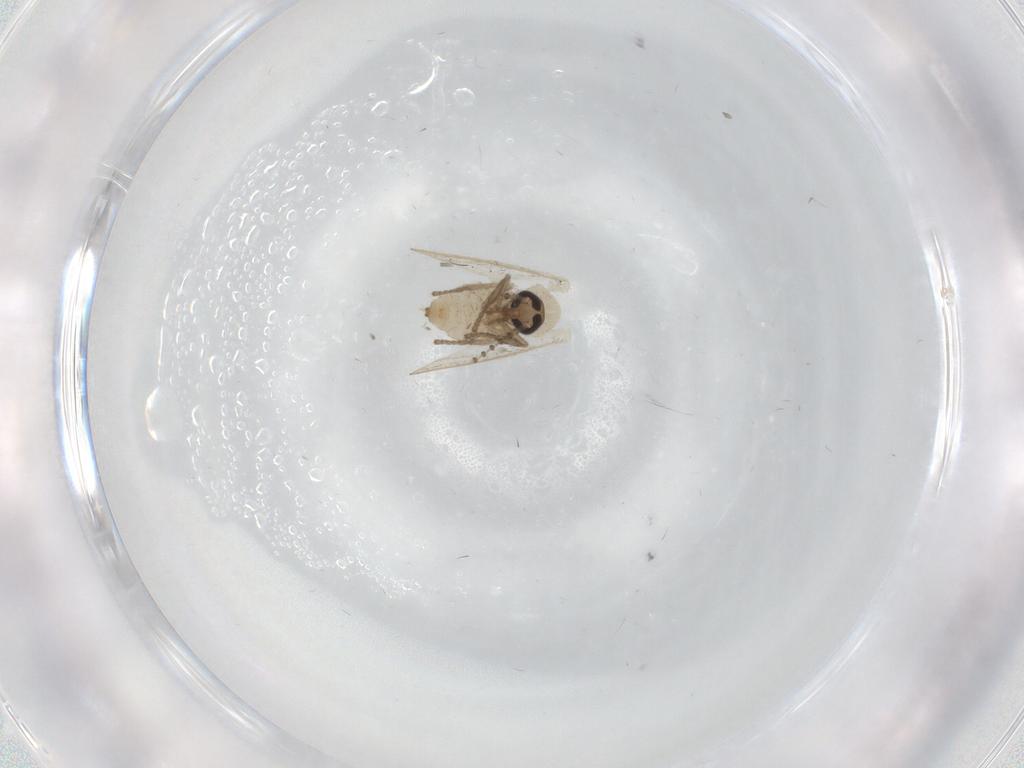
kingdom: Animalia
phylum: Arthropoda
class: Insecta
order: Diptera
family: Psychodidae
